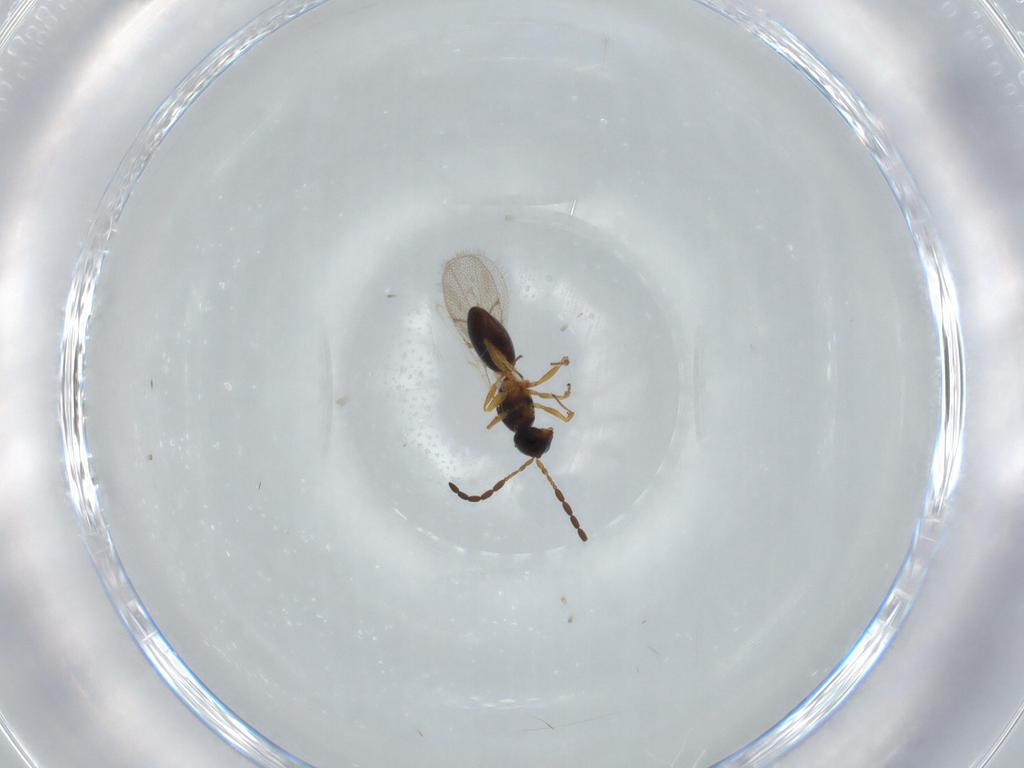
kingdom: Animalia
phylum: Arthropoda
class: Insecta
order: Hymenoptera
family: Figitidae
